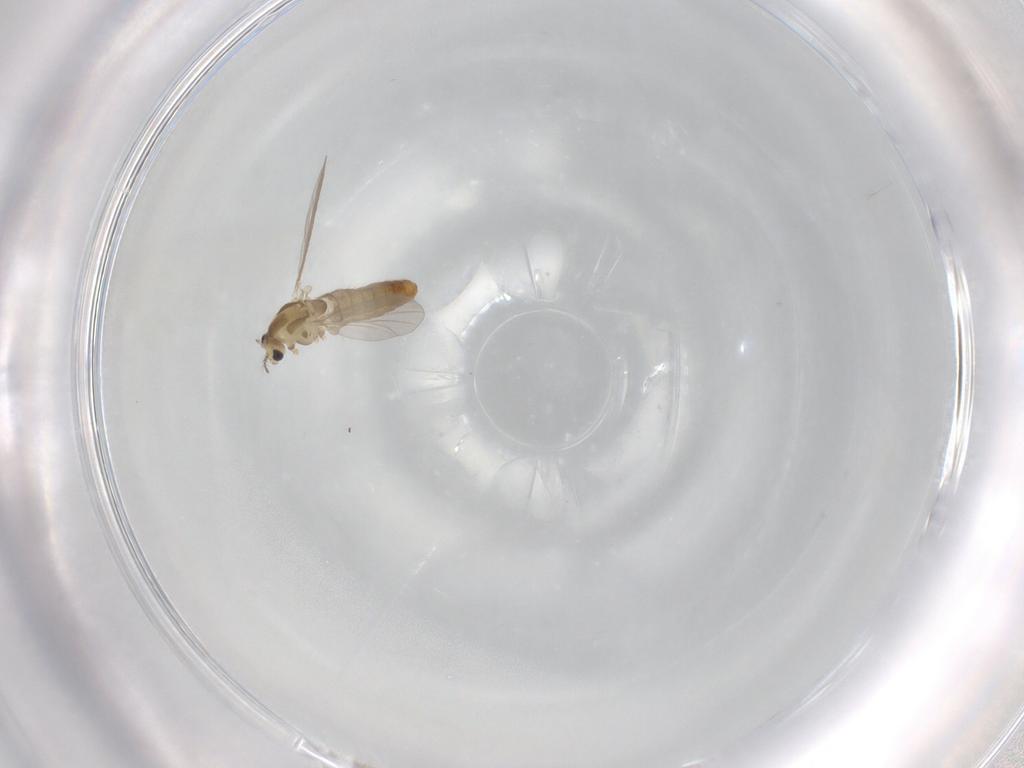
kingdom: Animalia
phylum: Arthropoda
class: Insecta
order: Diptera
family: Chironomidae
